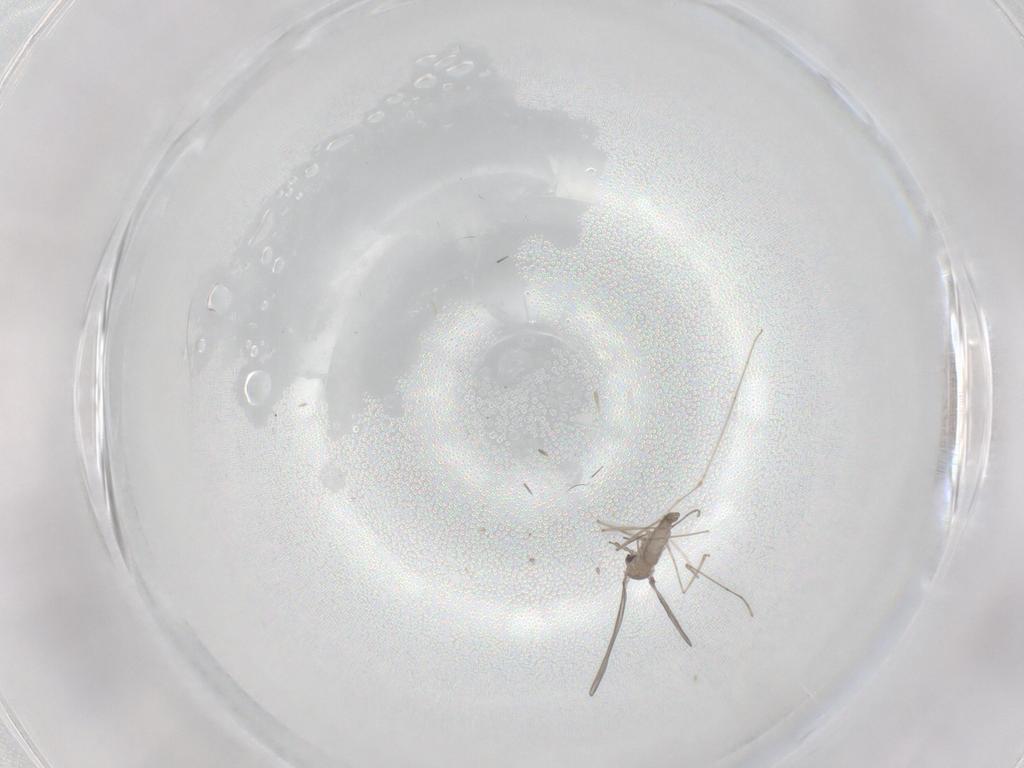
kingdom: Animalia
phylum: Arthropoda
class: Insecta
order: Diptera
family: Cecidomyiidae
